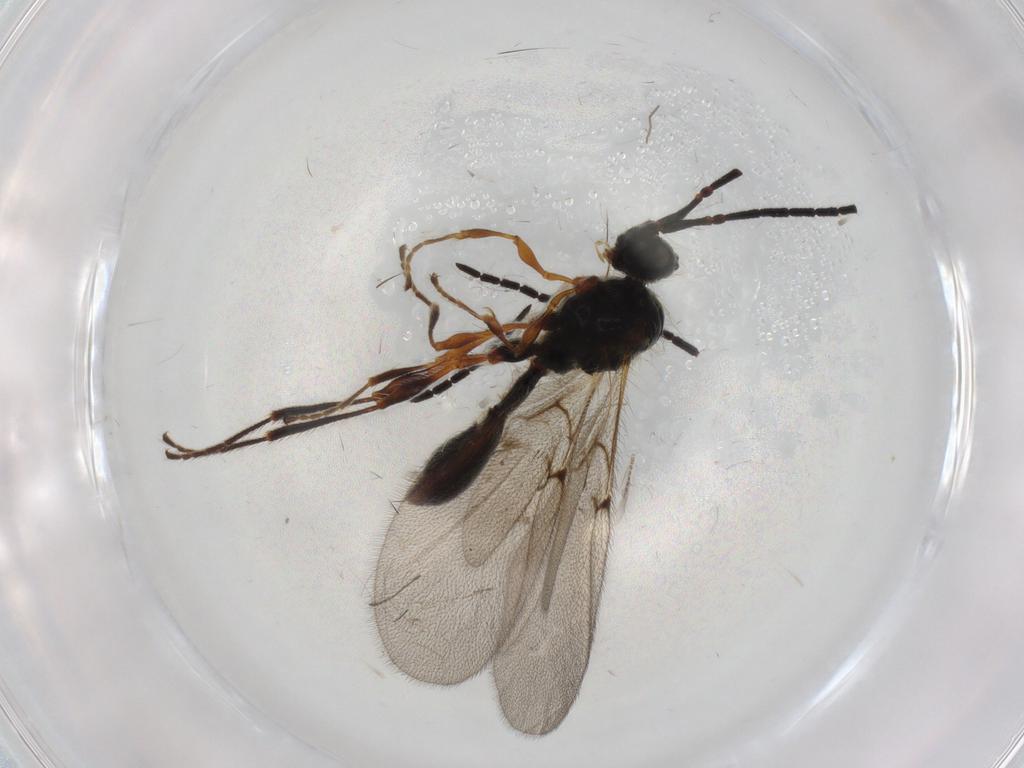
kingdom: Animalia
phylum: Arthropoda
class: Insecta
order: Hymenoptera
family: Diapriidae
